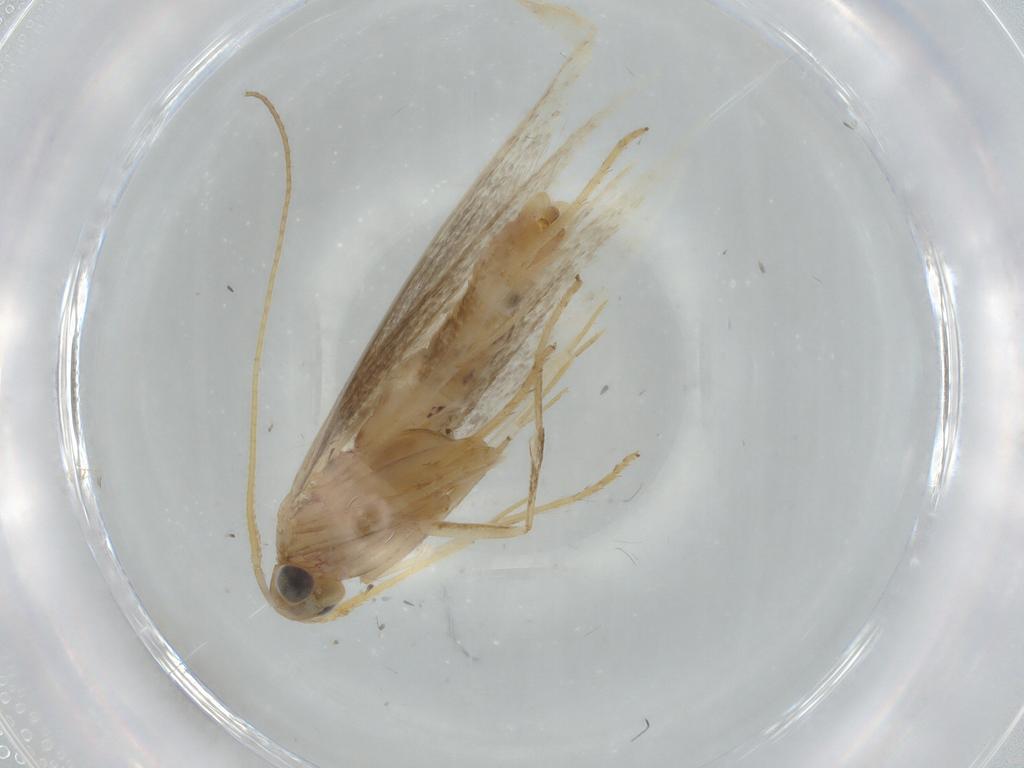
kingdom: Animalia
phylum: Arthropoda
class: Insecta
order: Lepidoptera
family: Coleophoridae
